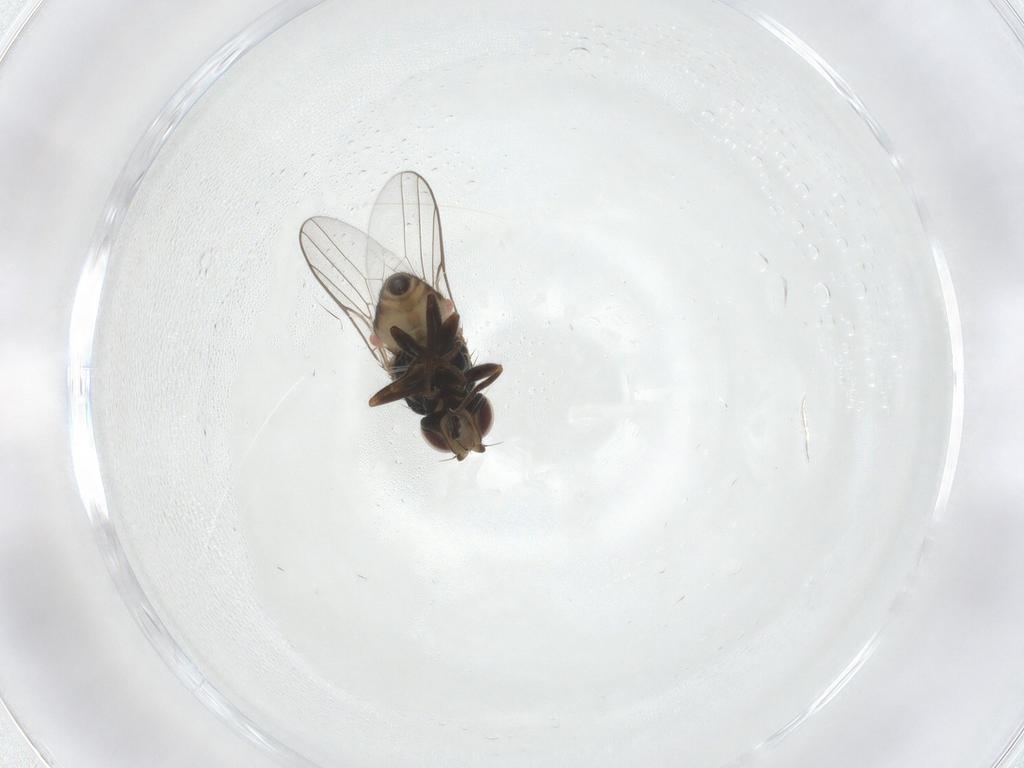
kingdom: Animalia
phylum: Arthropoda
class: Insecta
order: Diptera
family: Chloropidae
